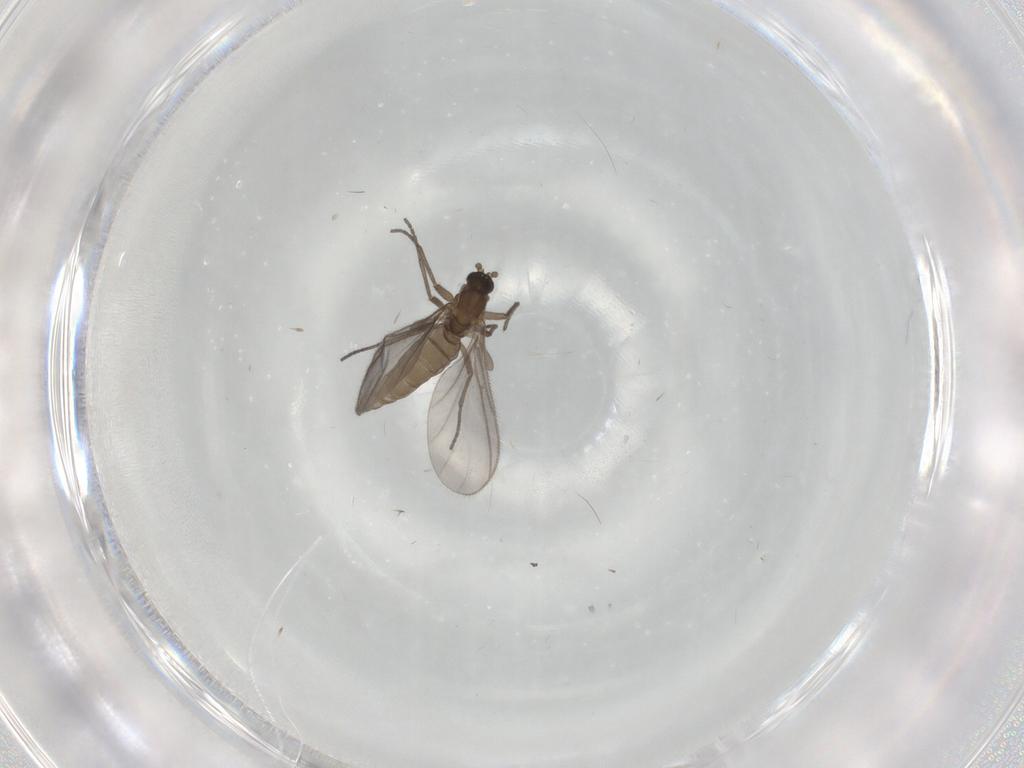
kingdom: Animalia
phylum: Arthropoda
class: Insecta
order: Diptera
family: Sciaridae
